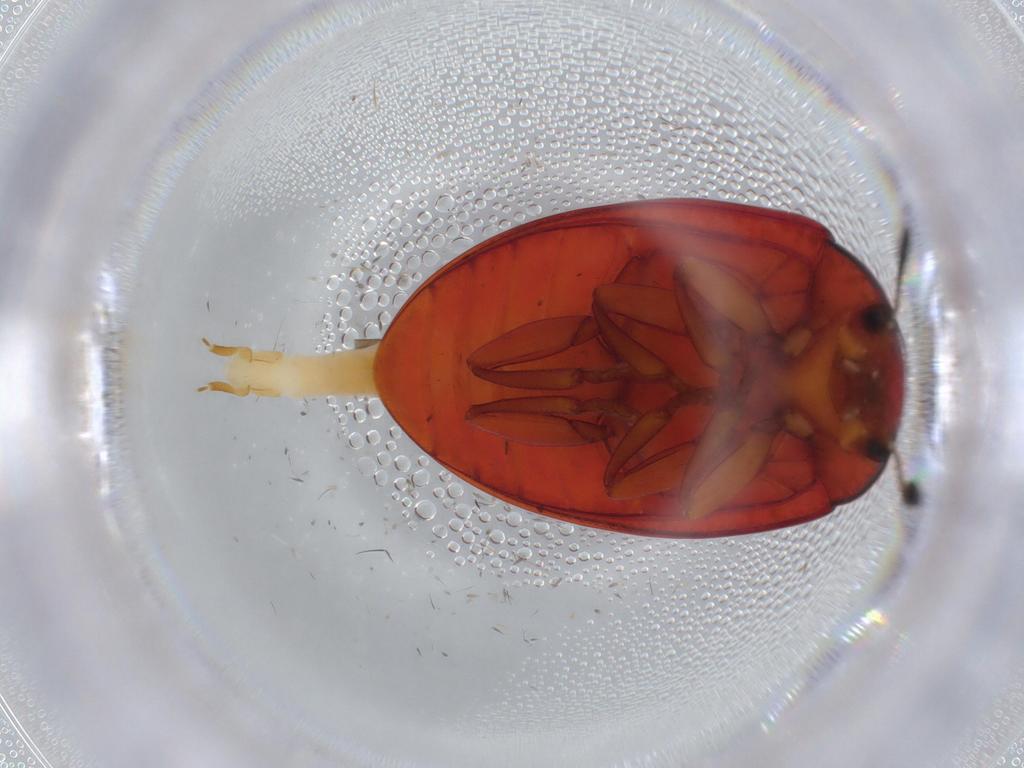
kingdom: Animalia
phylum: Arthropoda
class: Insecta
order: Coleoptera
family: Erotylidae
